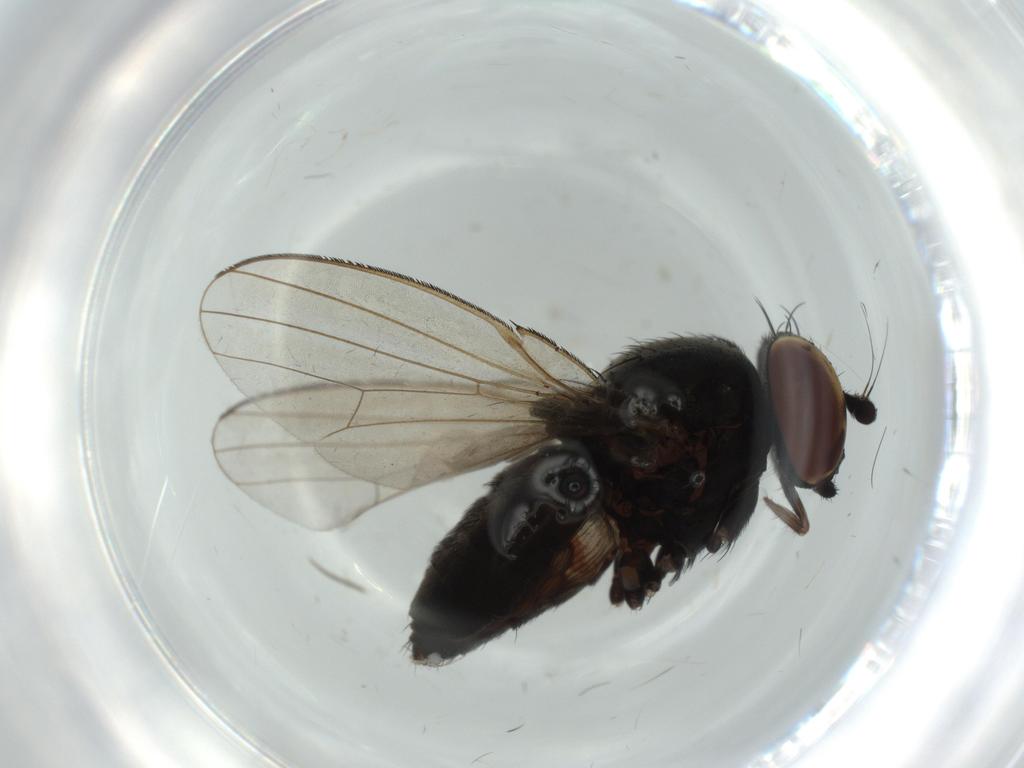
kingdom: Animalia
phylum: Arthropoda
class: Insecta
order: Diptera
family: Milichiidae
